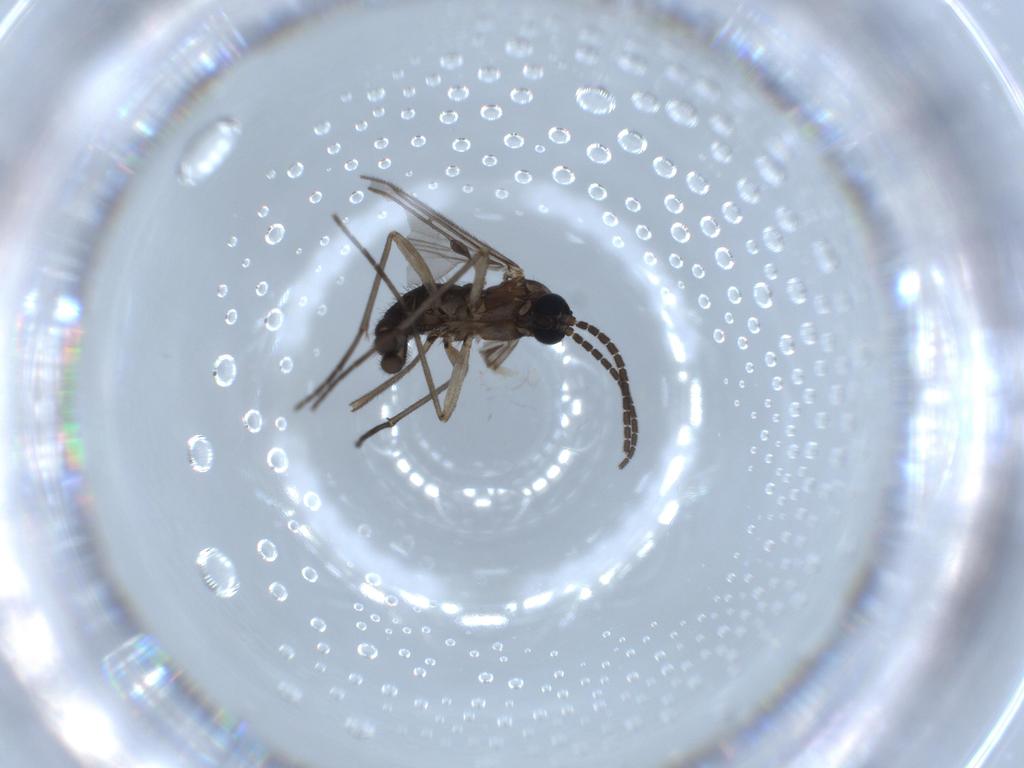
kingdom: Animalia
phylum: Arthropoda
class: Insecta
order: Diptera
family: Sciaridae
